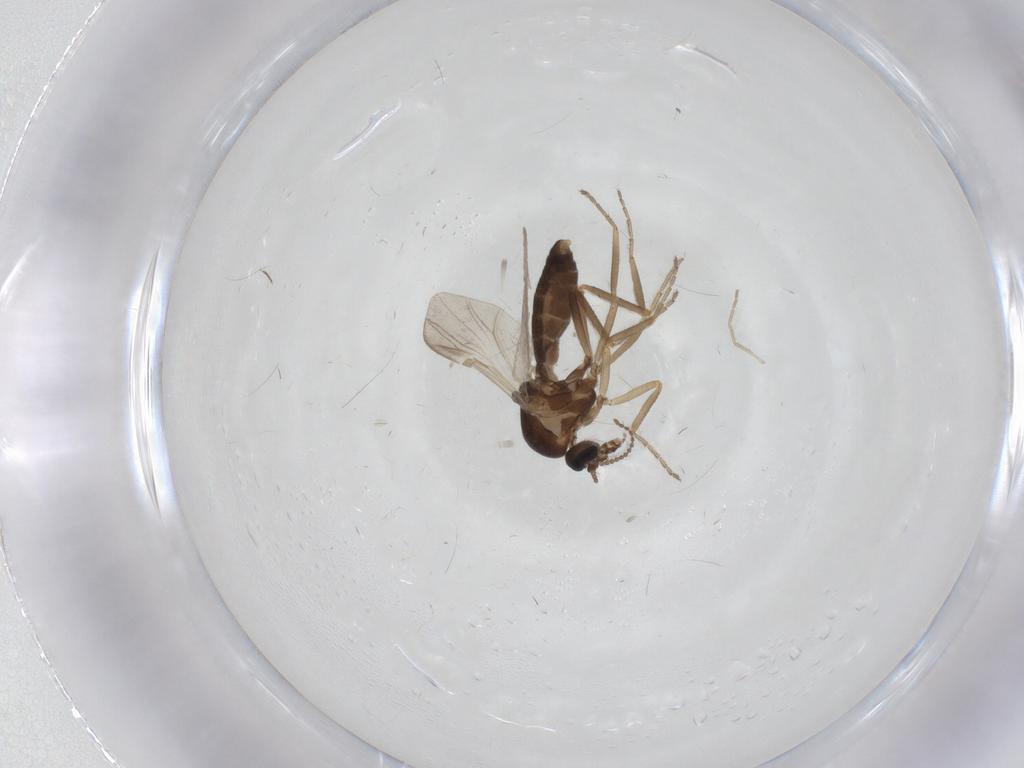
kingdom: Animalia
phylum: Arthropoda
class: Insecta
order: Diptera
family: Ceratopogonidae
